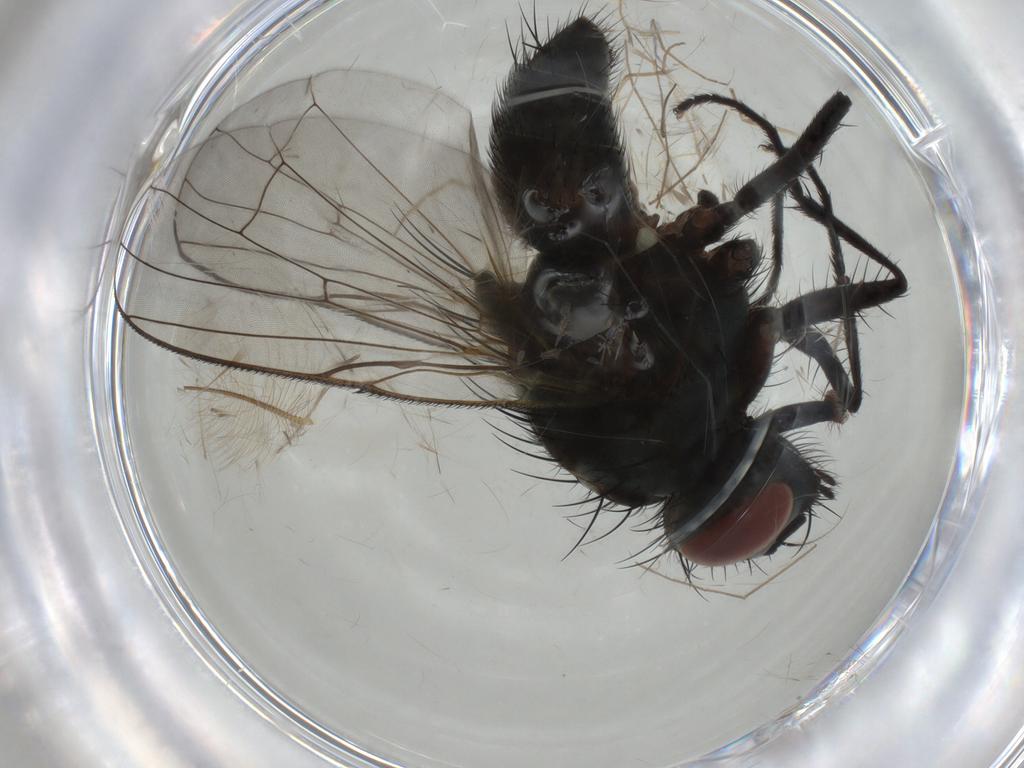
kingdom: Animalia
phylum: Arthropoda
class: Insecta
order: Diptera
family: Muscidae
